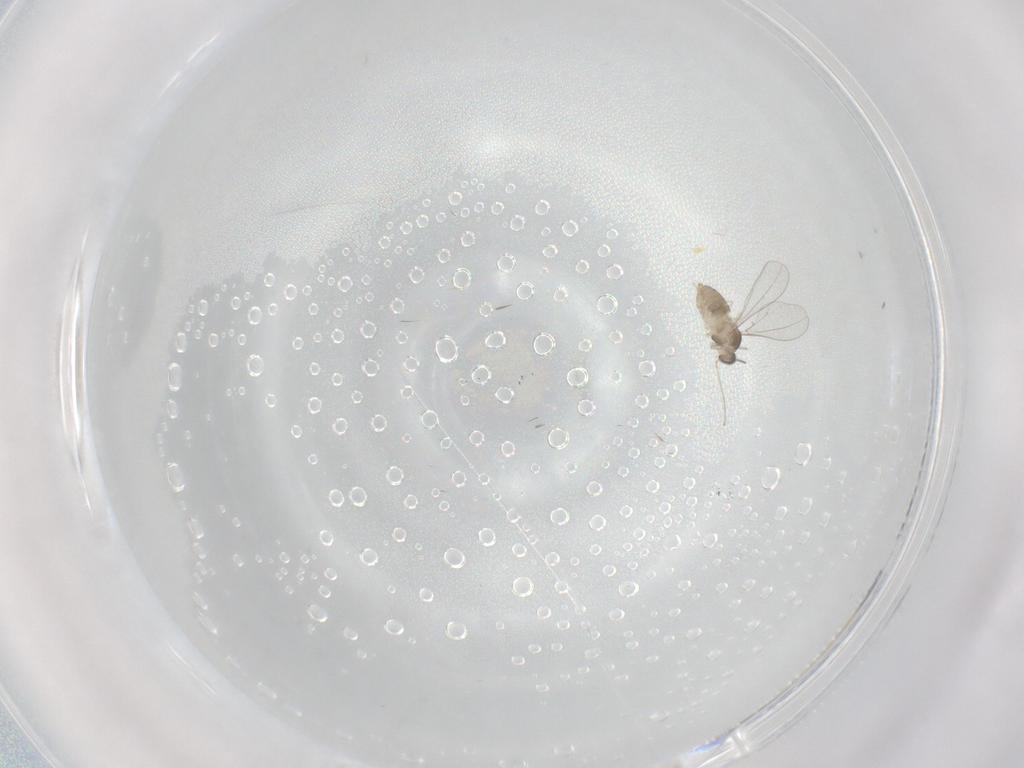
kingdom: Animalia
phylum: Arthropoda
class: Insecta
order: Diptera
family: Cecidomyiidae
